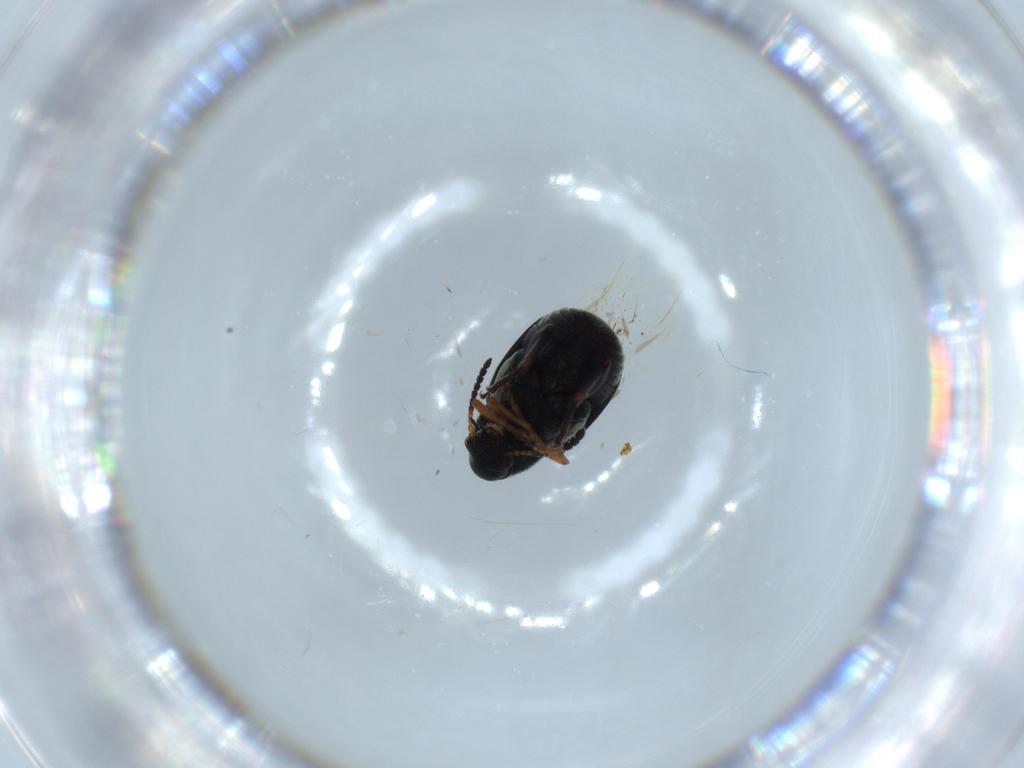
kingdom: Animalia
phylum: Arthropoda
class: Insecta
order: Coleoptera
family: Chrysomelidae
